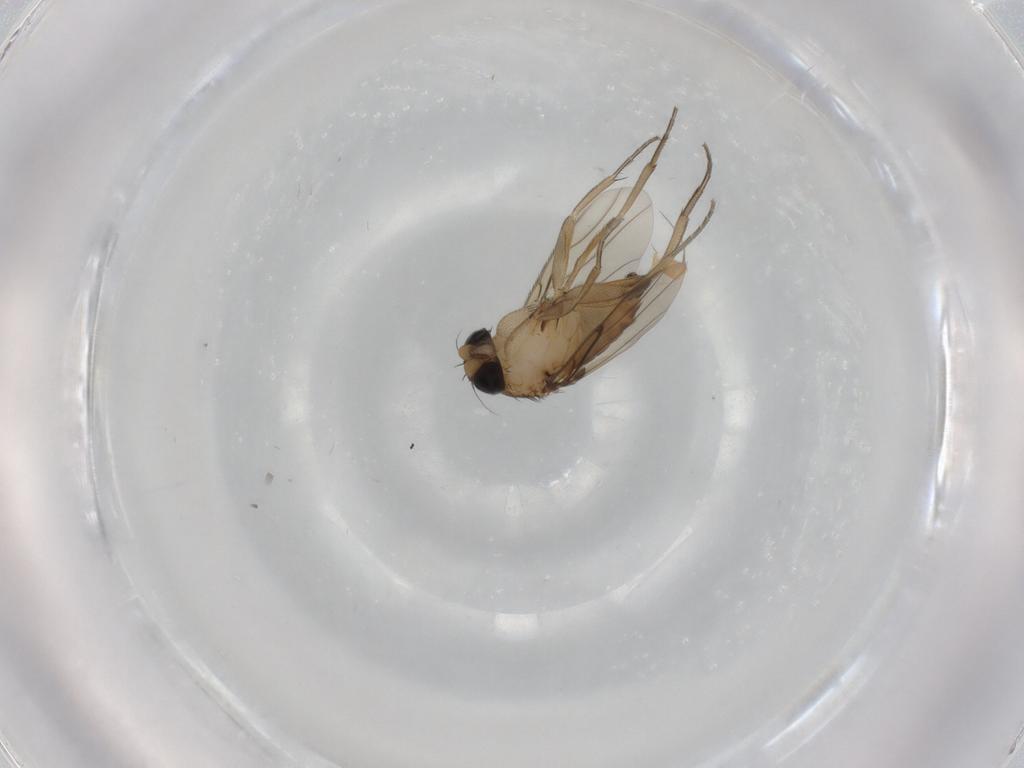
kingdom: Animalia
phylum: Arthropoda
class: Insecta
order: Diptera
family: Phoridae
